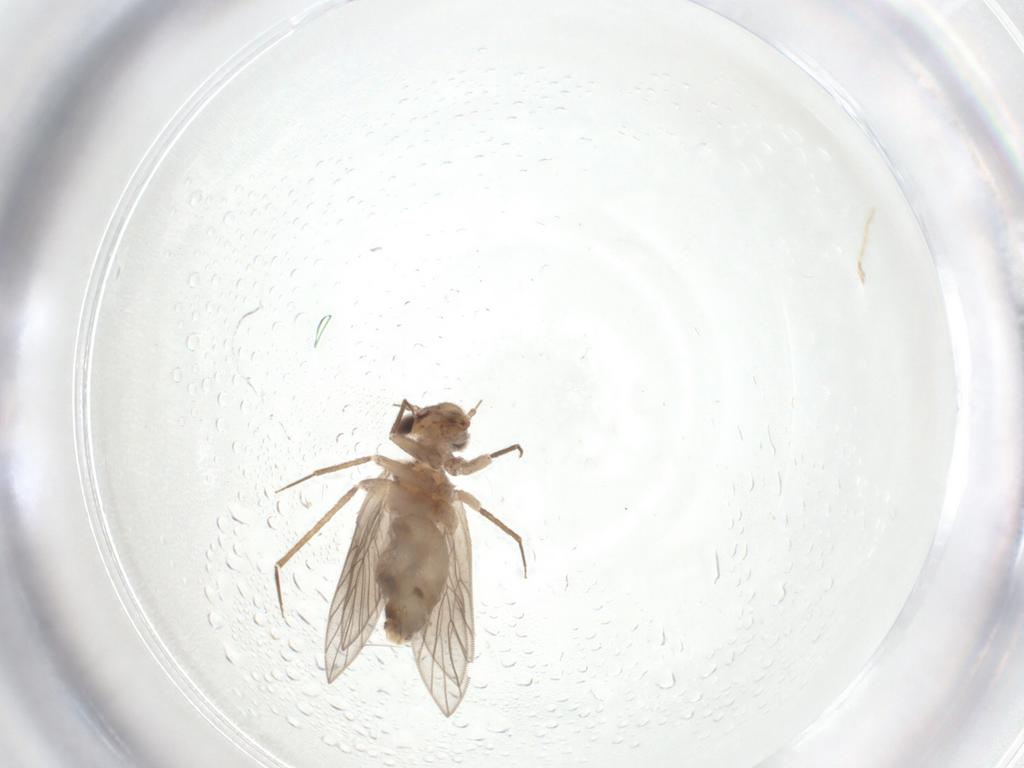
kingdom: Animalia
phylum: Arthropoda
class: Insecta
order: Psocodea
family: Lepidopsocidae
